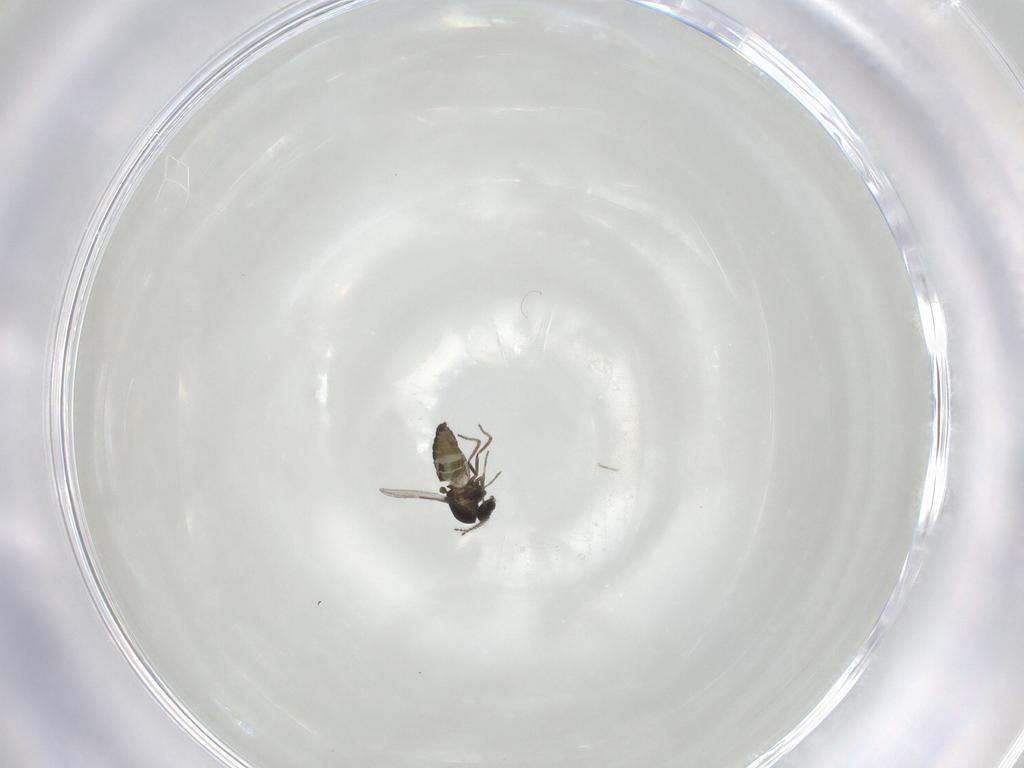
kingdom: Animalia
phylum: Arthropoda
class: Insecta
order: Diptera
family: Ceratopogonidae
